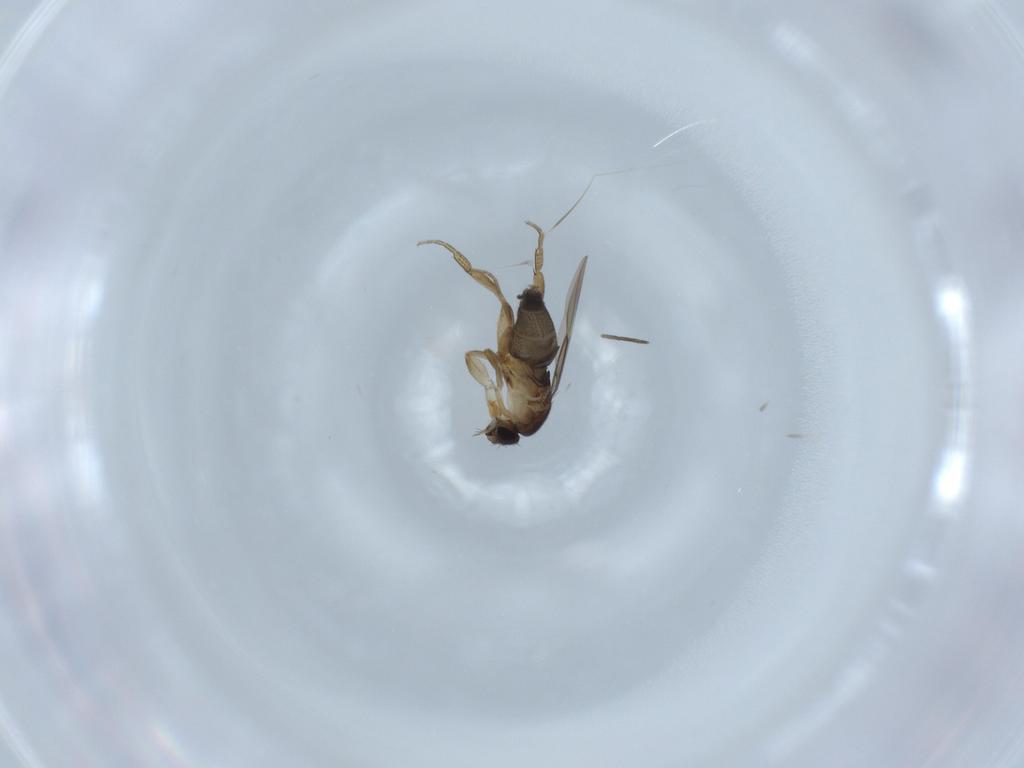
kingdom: Animalia
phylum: Arthropoda
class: Insecta
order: Diptera
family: Phoridae
